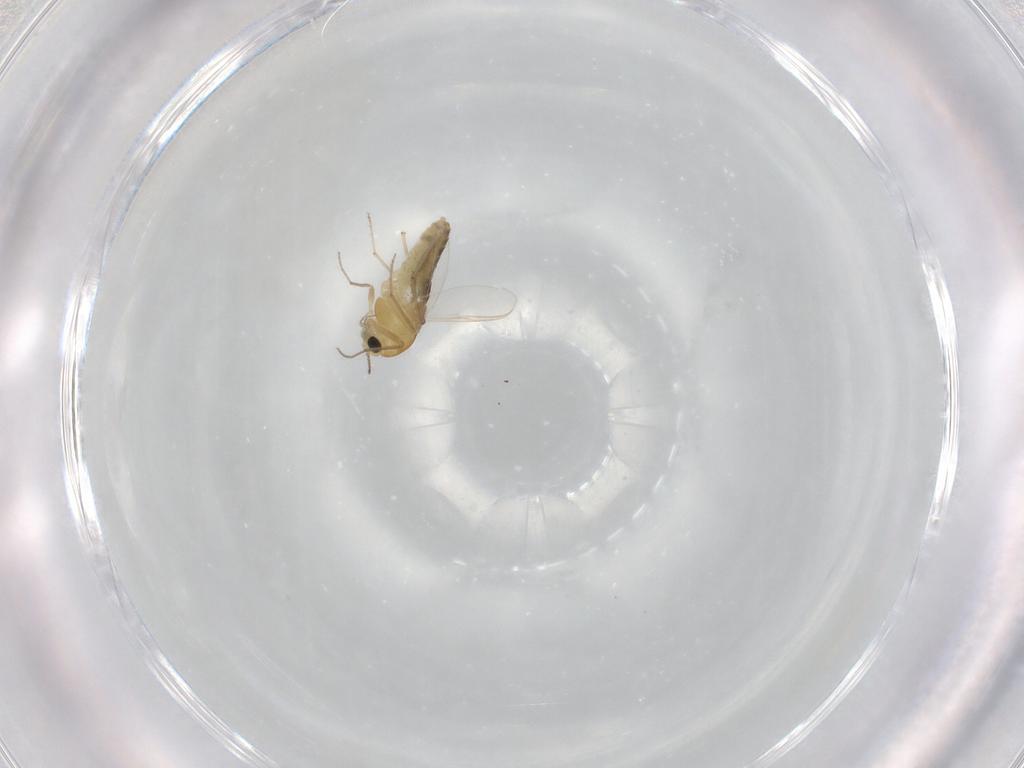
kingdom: Animalia
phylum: Arthropoda
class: Insecta
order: Diptera
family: Chironomidae
